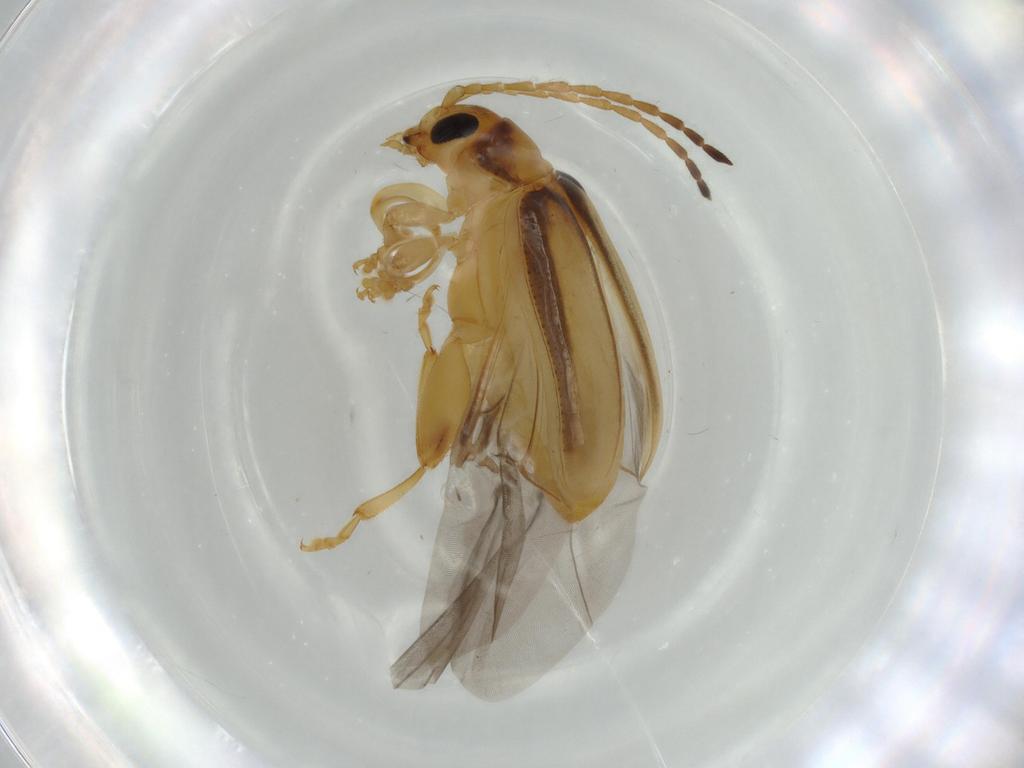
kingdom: Animalia
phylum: Arthropoda
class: Insecta
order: Coleoptera
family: Chrysomelidae
